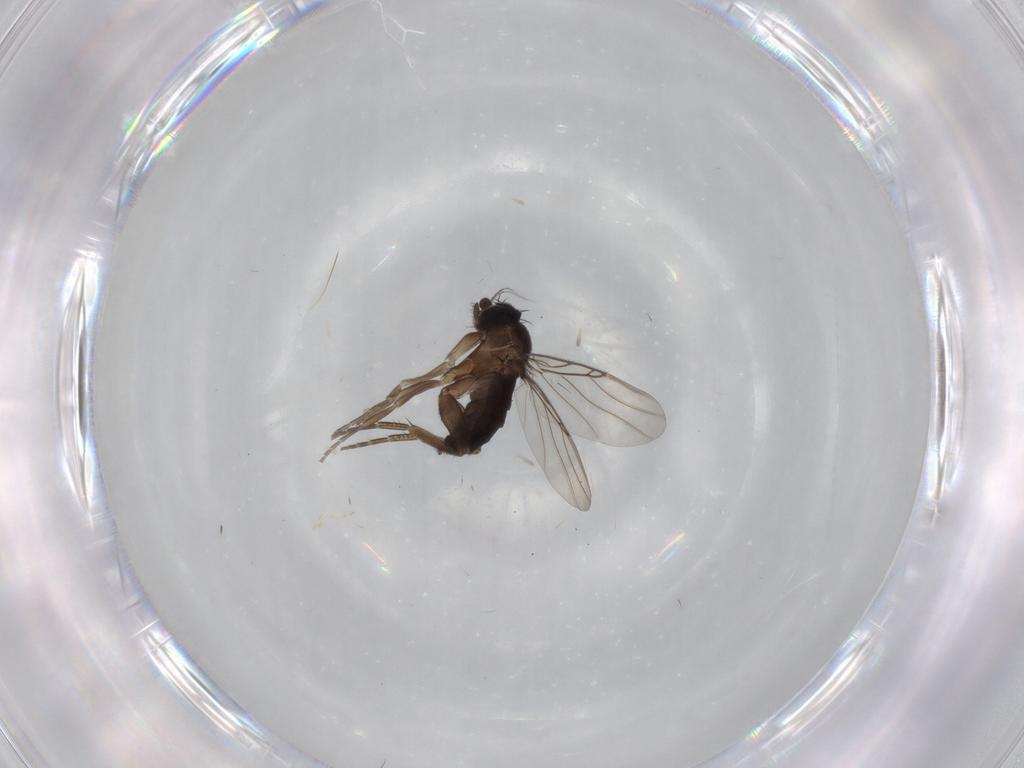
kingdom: Animalia
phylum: Arthropoda
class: Insecta
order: Diptera
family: Phoridae
